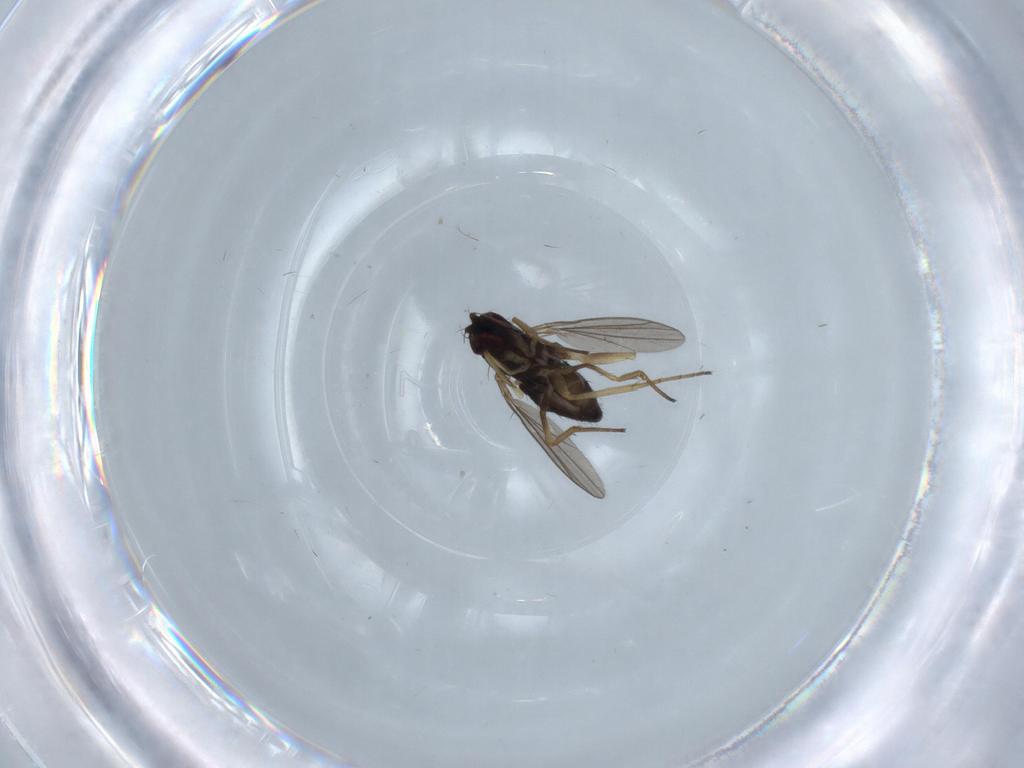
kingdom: Animalia
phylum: Arthropoda
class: Insecta
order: Diptera
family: Dolichopodidae
